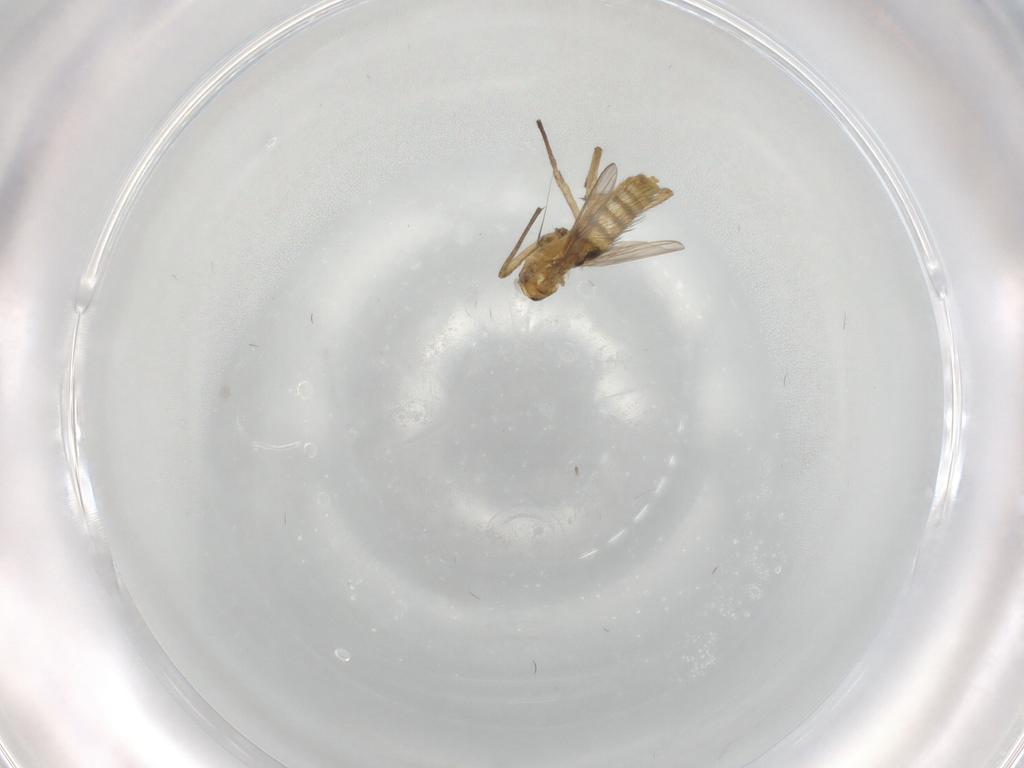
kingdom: Animalia
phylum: Arthropoda
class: Insecta
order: Diptera
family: Chironomidae
